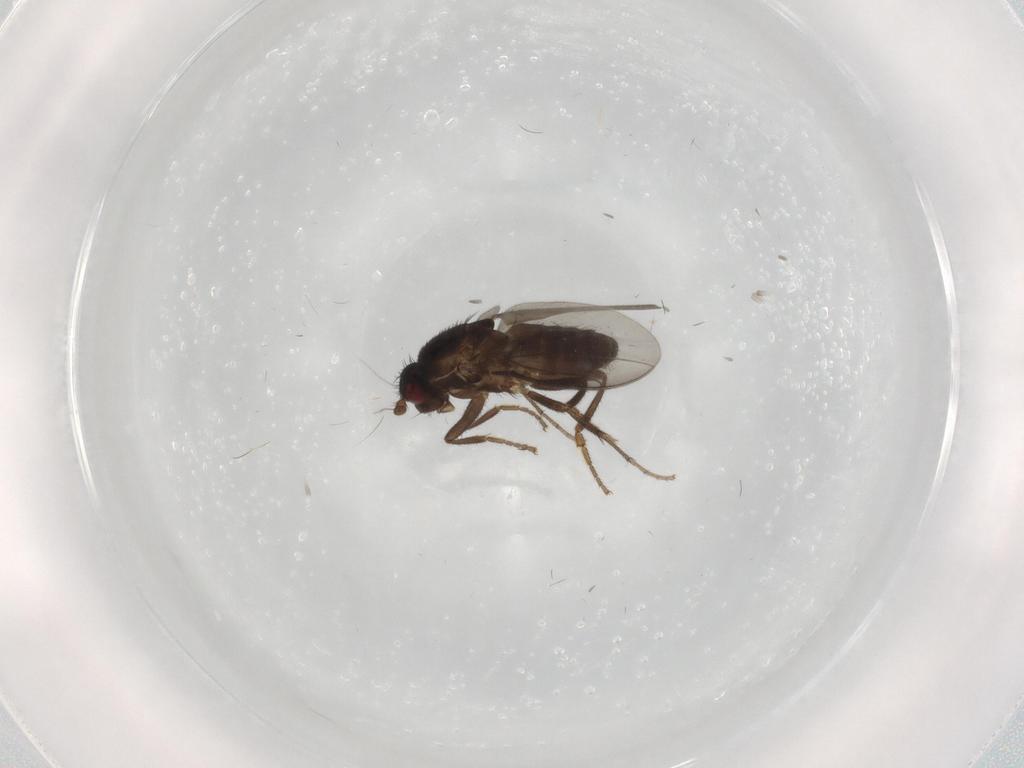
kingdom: Animalia
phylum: Arthropoda
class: Insecta
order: Diptera
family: Sphaeroceridae
